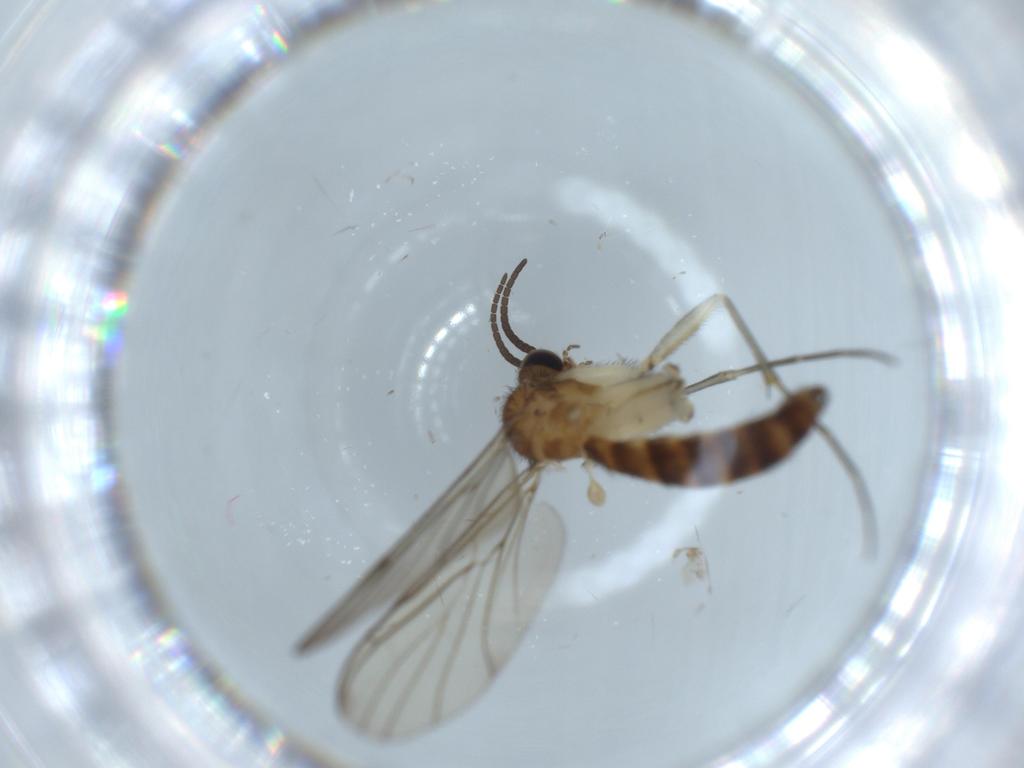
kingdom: Animalia
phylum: Arthropoda
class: Insecta
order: Diptera
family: Keroplatidae
